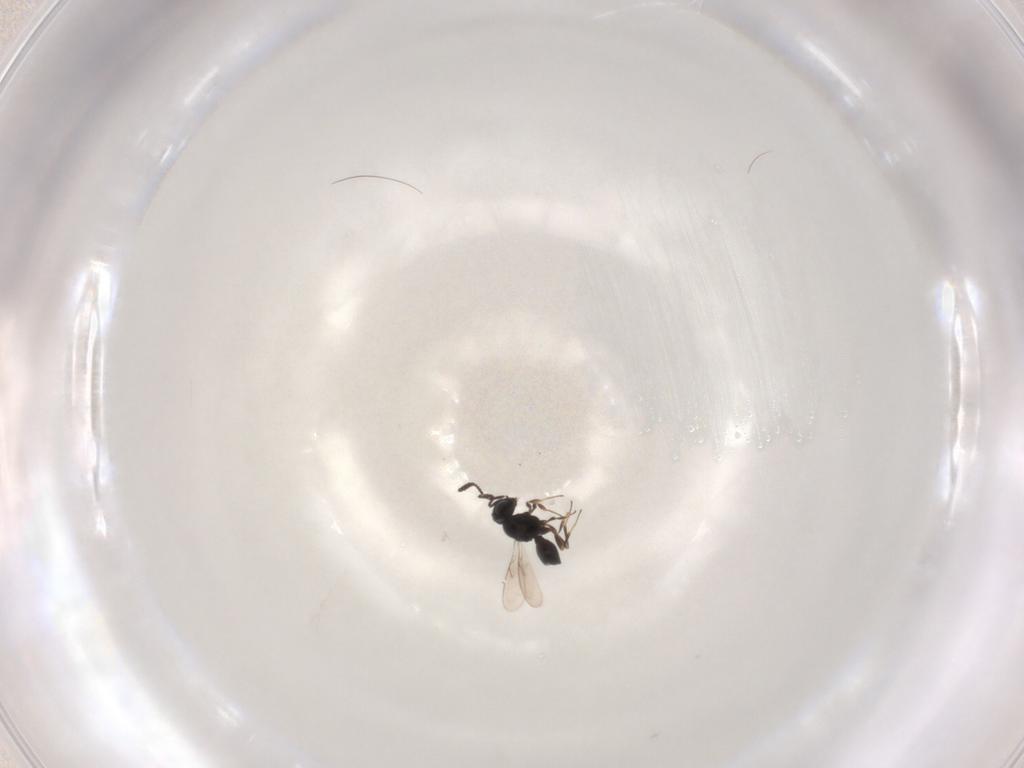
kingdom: Animalia
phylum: Arthropoda
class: Insecta
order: Hymenoptera
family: Scelionidae
